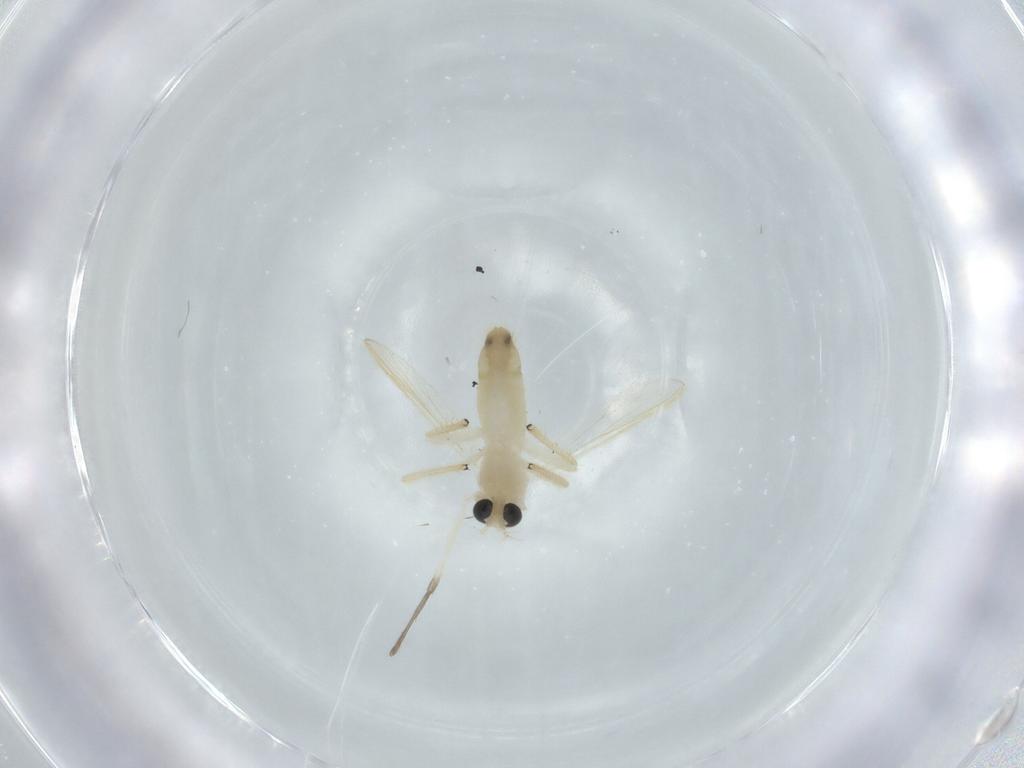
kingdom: Animalia
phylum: Arthropoda
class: Insecta
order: Diptera
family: Chironomidae
